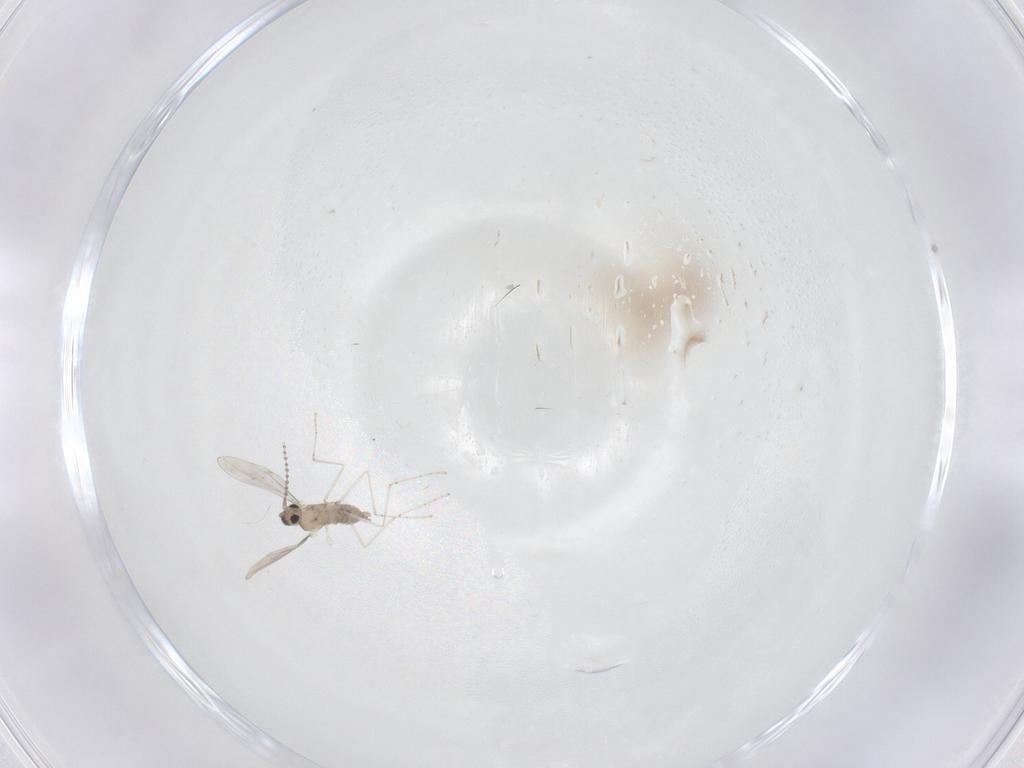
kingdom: Animalia
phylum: Arthropoda
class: Insecta
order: Diptera
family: Cecidomyiidae
